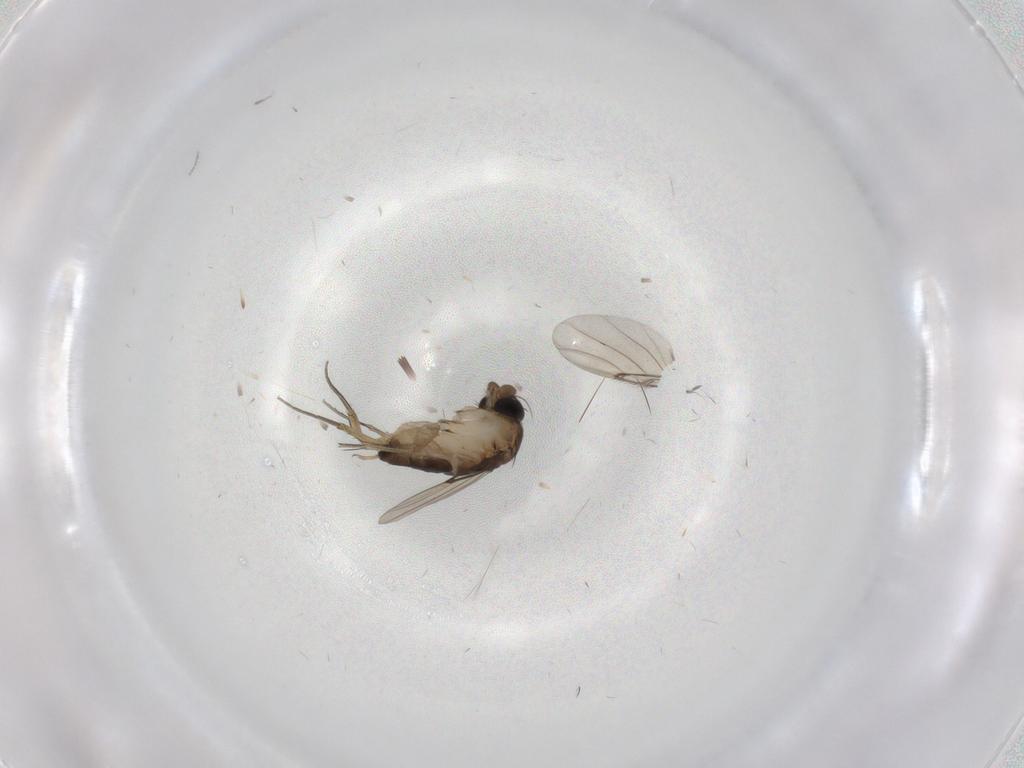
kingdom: Animalia
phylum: Arthropoda
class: Insecta
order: Diptera
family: Phoridae
